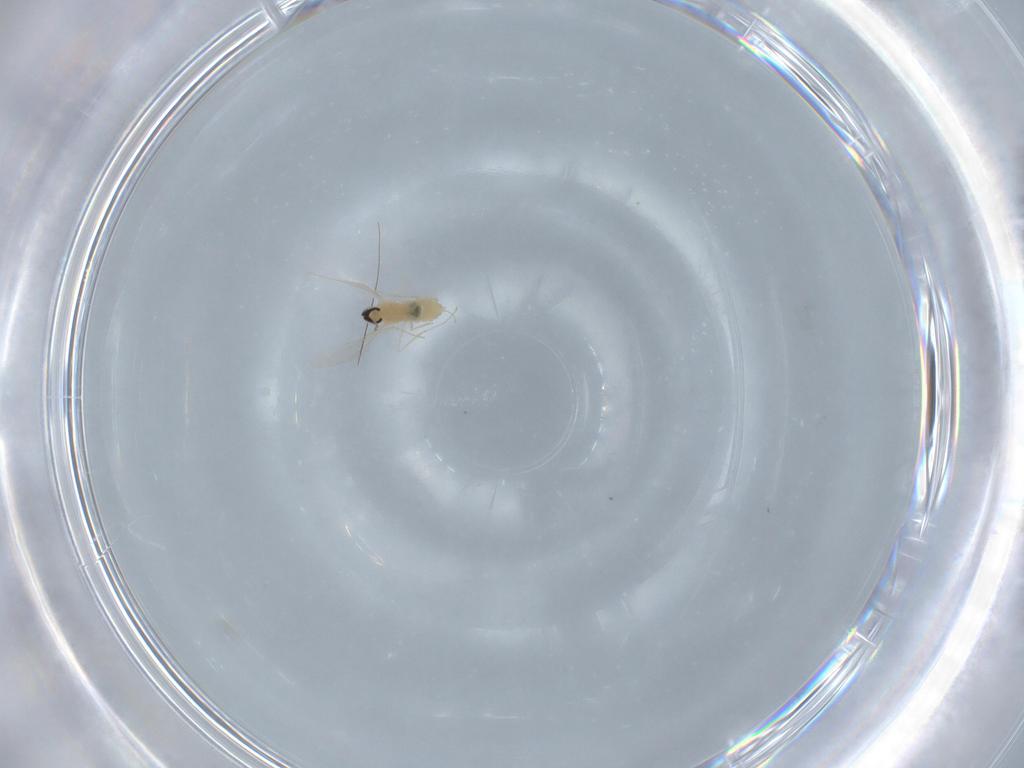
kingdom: Animalia
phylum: Arthropoda
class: Insecta
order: Diptera
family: Cecidomyiidae
